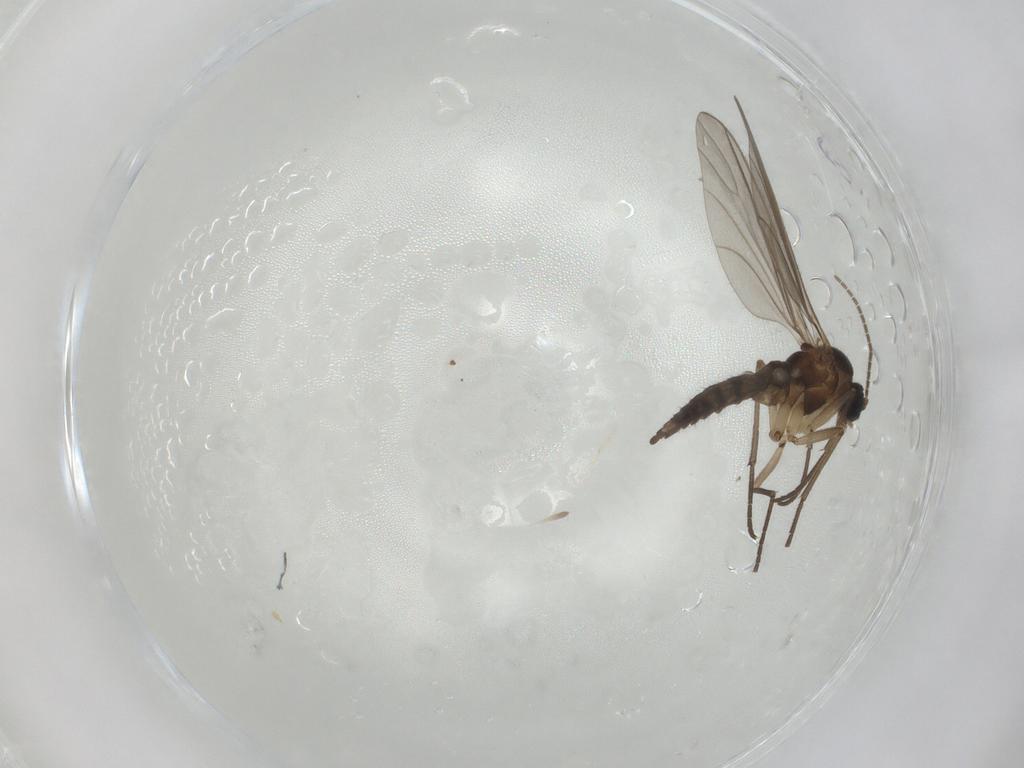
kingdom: Animalia
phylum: Arthropoda
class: Insecta
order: Diptera
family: Sciaridae
